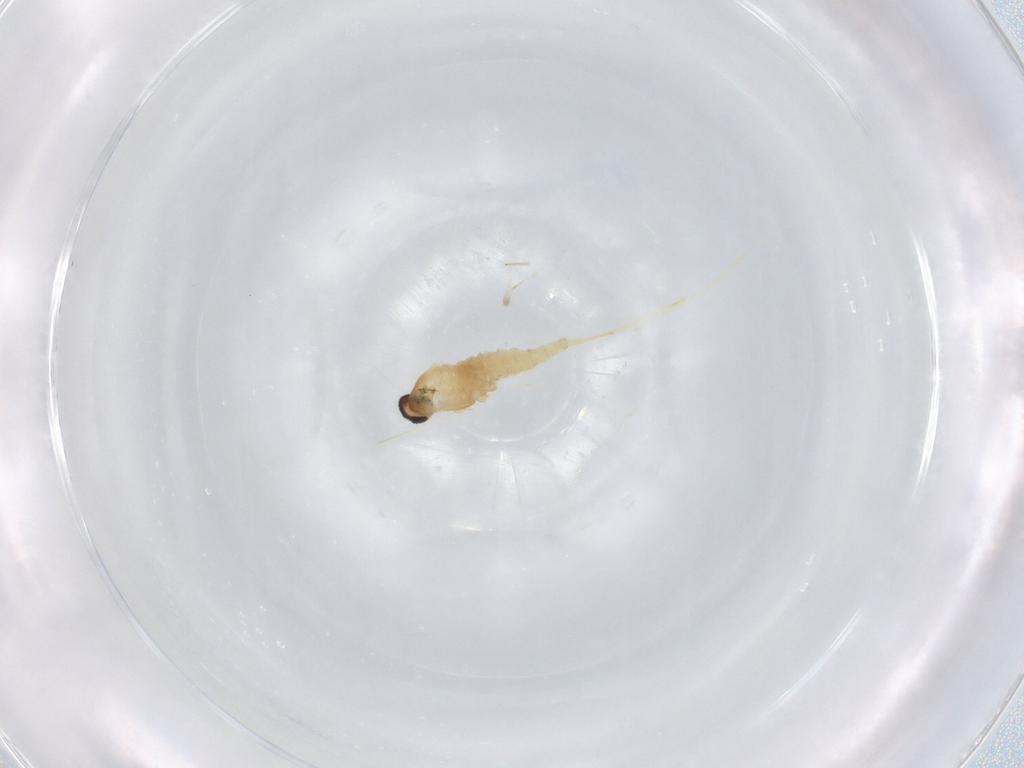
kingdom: Animalia
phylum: Arthropoda
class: Insecta
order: Diptera
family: Cecidomyiidae
